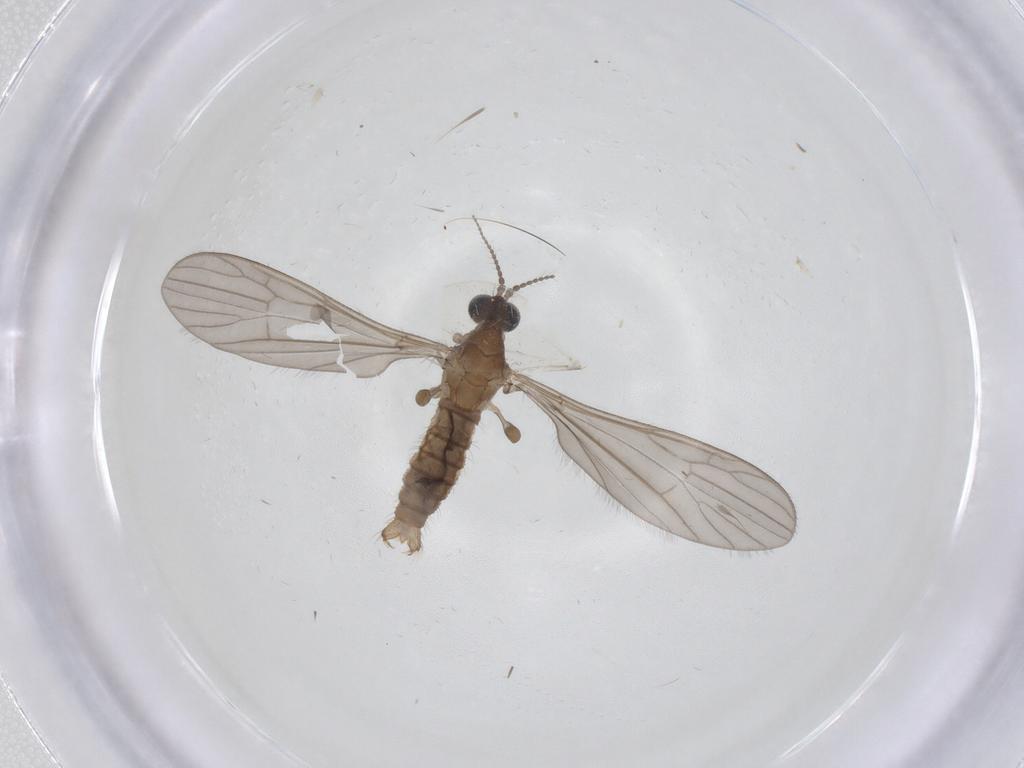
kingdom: Animalia
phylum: Arthropoda
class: Insecta
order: Diptera
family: Limoniidae
